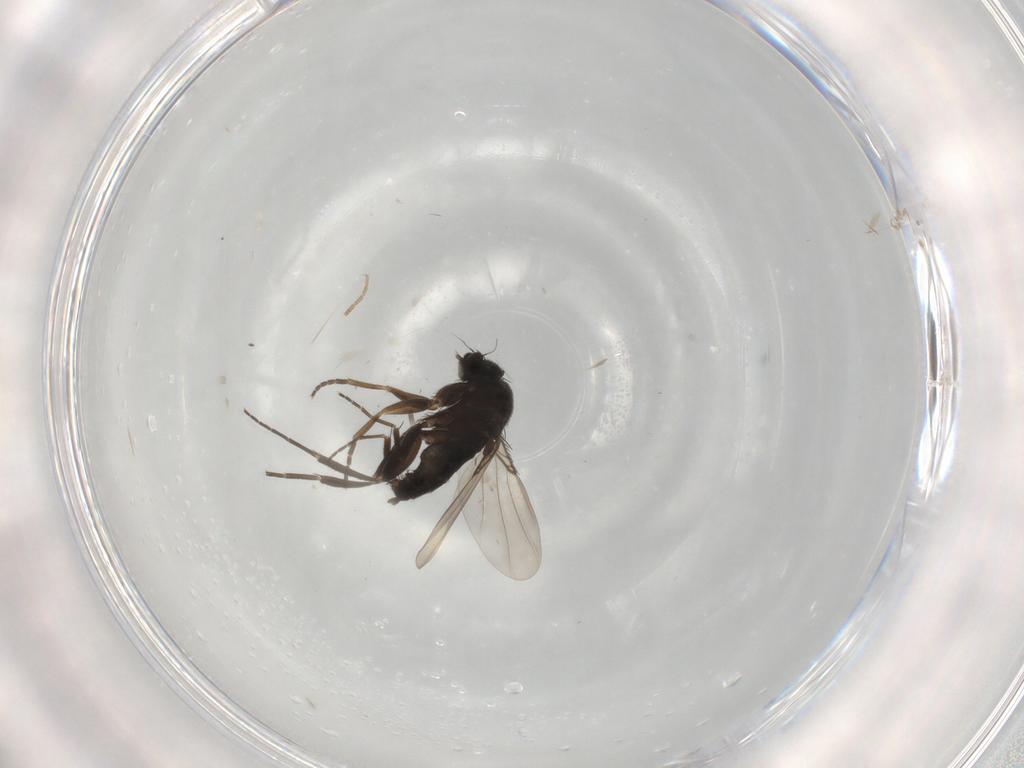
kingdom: Animalia
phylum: Arthropoda
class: Insecta
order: Diptera
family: Phoridae
